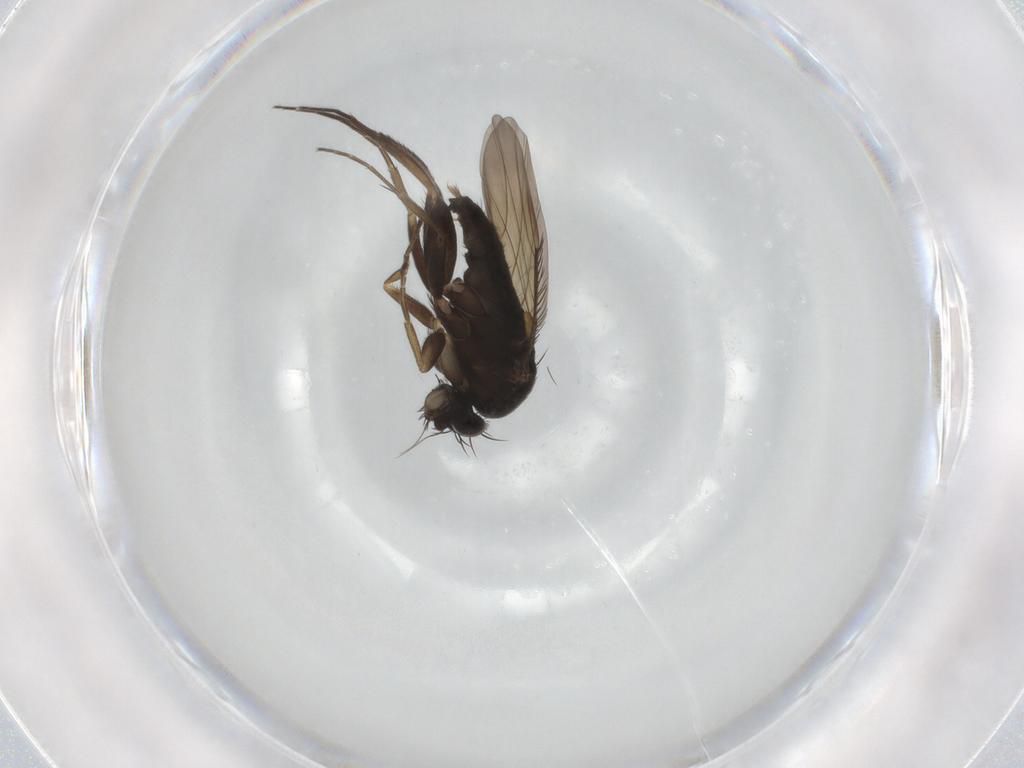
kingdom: Animalia
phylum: Arthropoda
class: Insecta
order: Diptera
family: Phoridae
